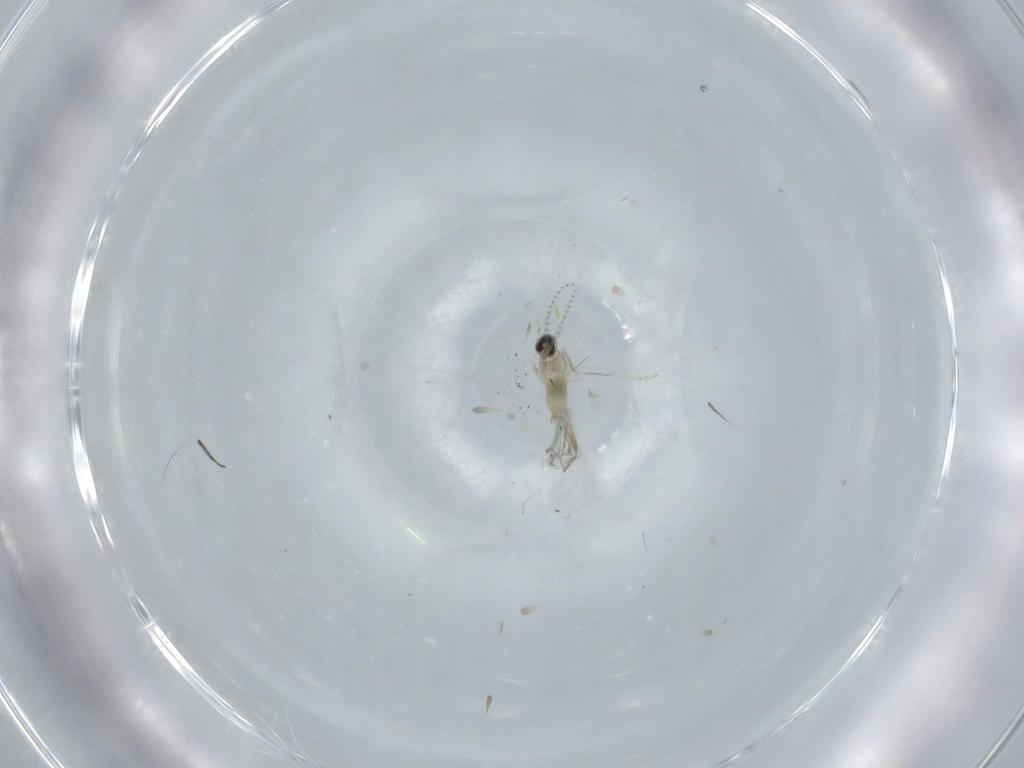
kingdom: Animalia
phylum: Arthropoda
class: Insecta
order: Diptera
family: Cecidomyiidae
